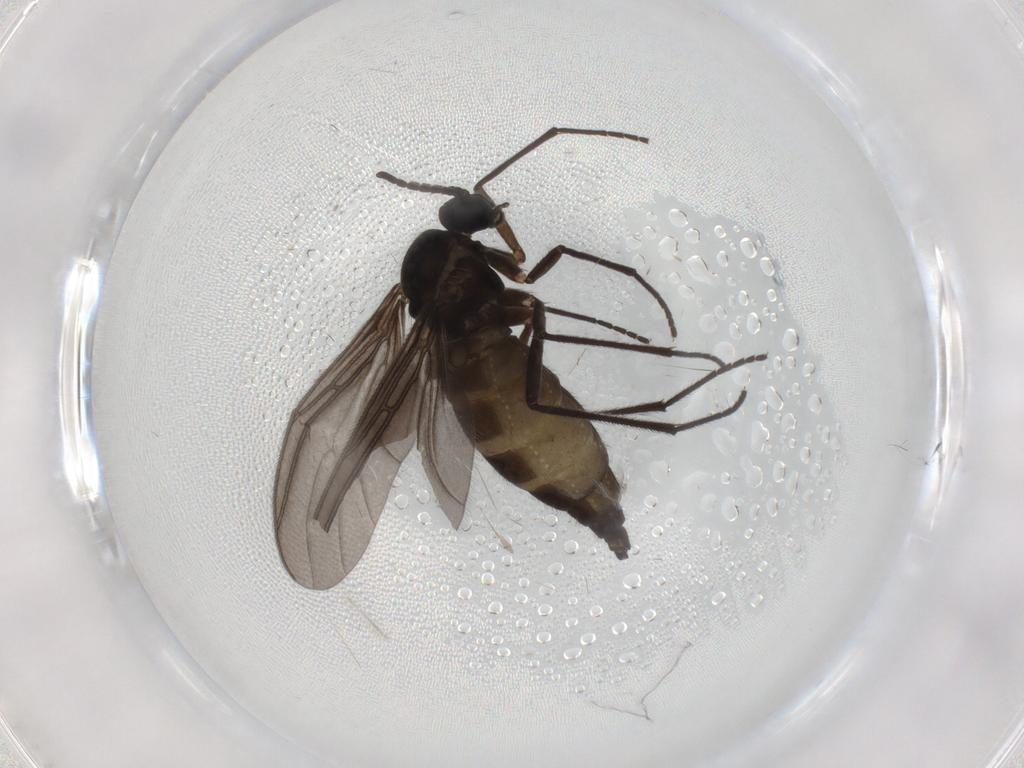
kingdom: Animalia
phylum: Arthropoda
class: Insecta
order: Diptera
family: Sciaridae
